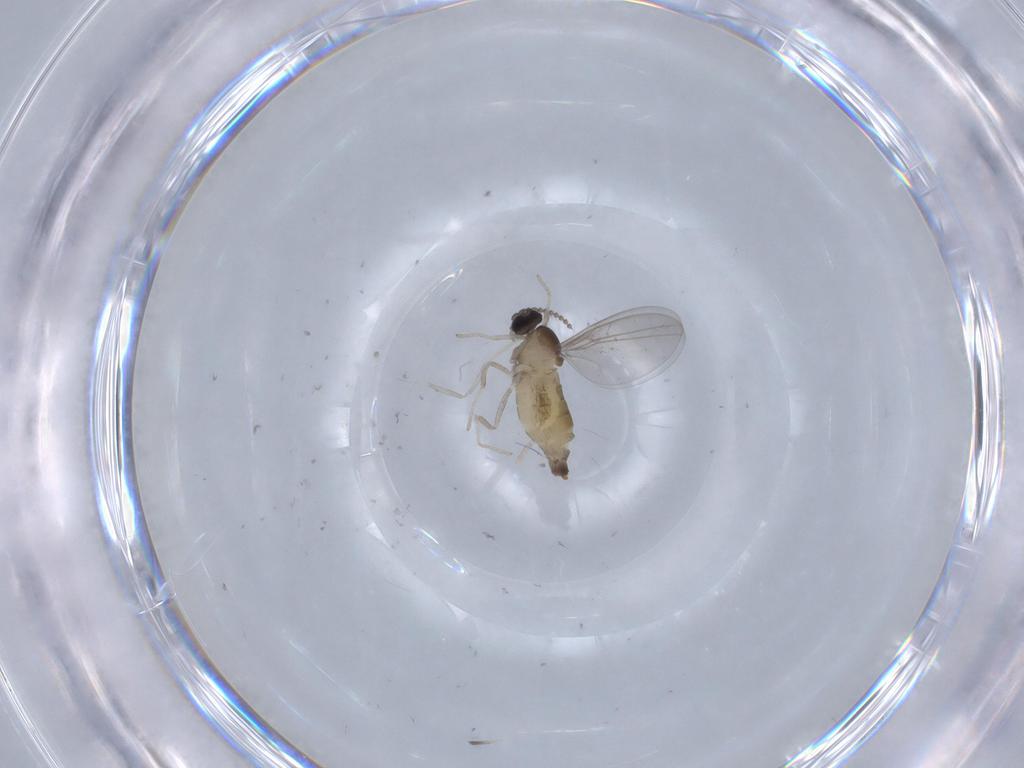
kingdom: Animalia
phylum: Arthropoda
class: Insecta
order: Diptera
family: Cecidomyiidae
